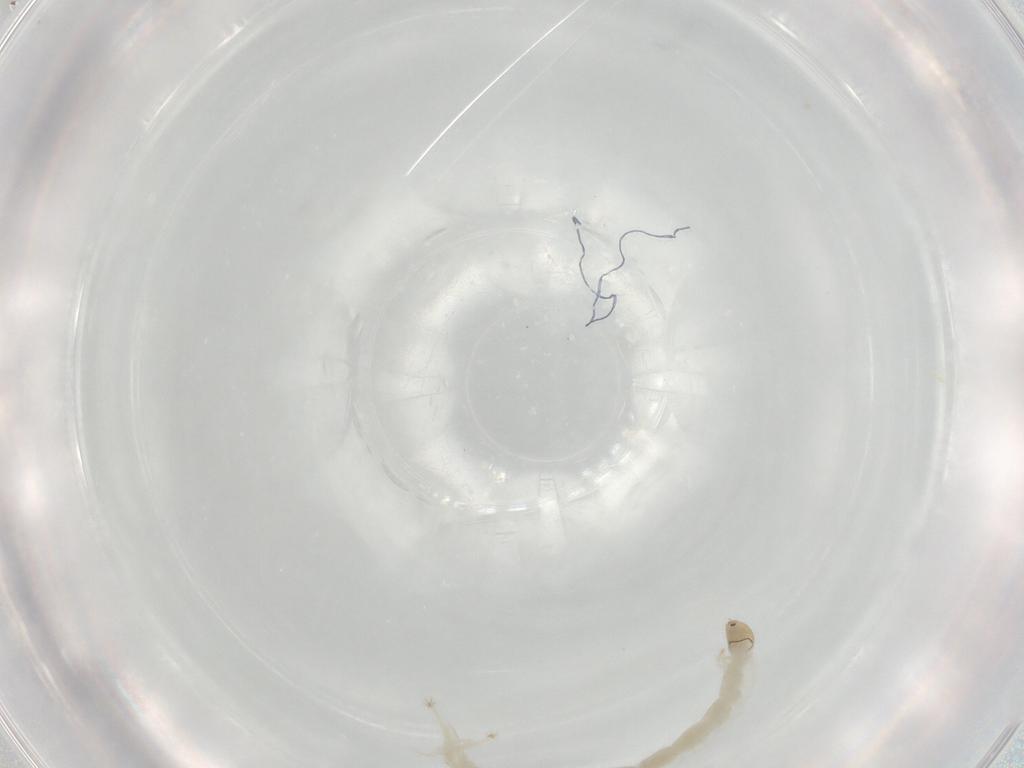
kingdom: Animalia
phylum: Arthropoda
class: Insecta
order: Diptera
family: Chironomidae
